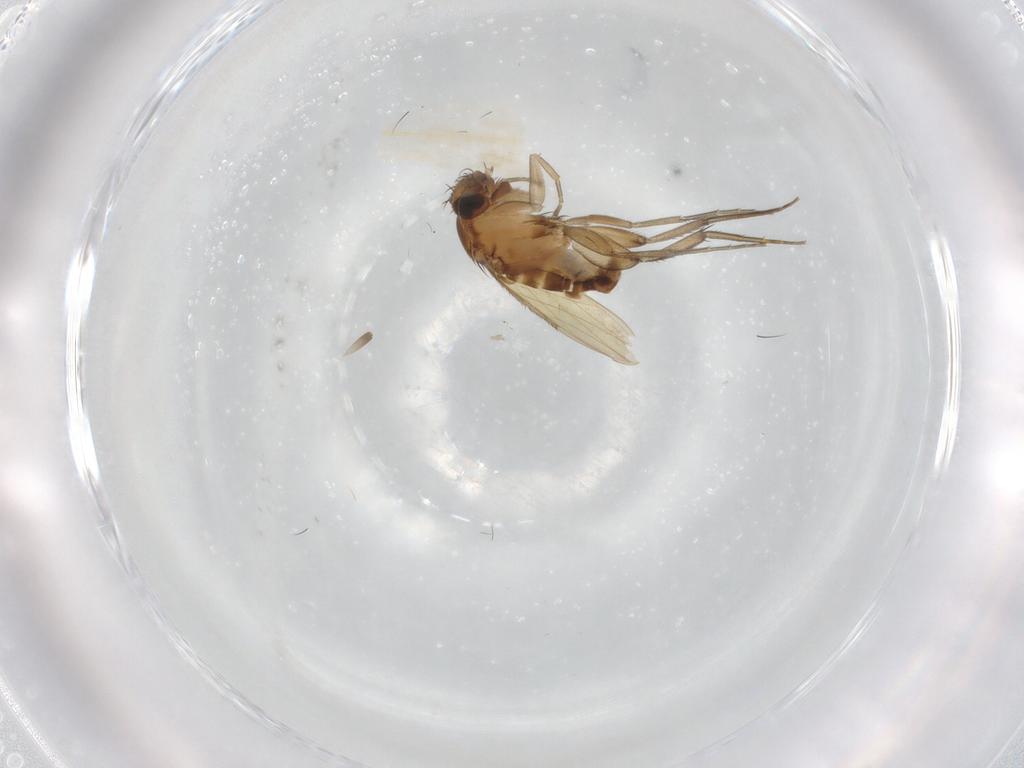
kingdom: Animalia
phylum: Arthropoda
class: Insecta
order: Diptera
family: Phoridae
